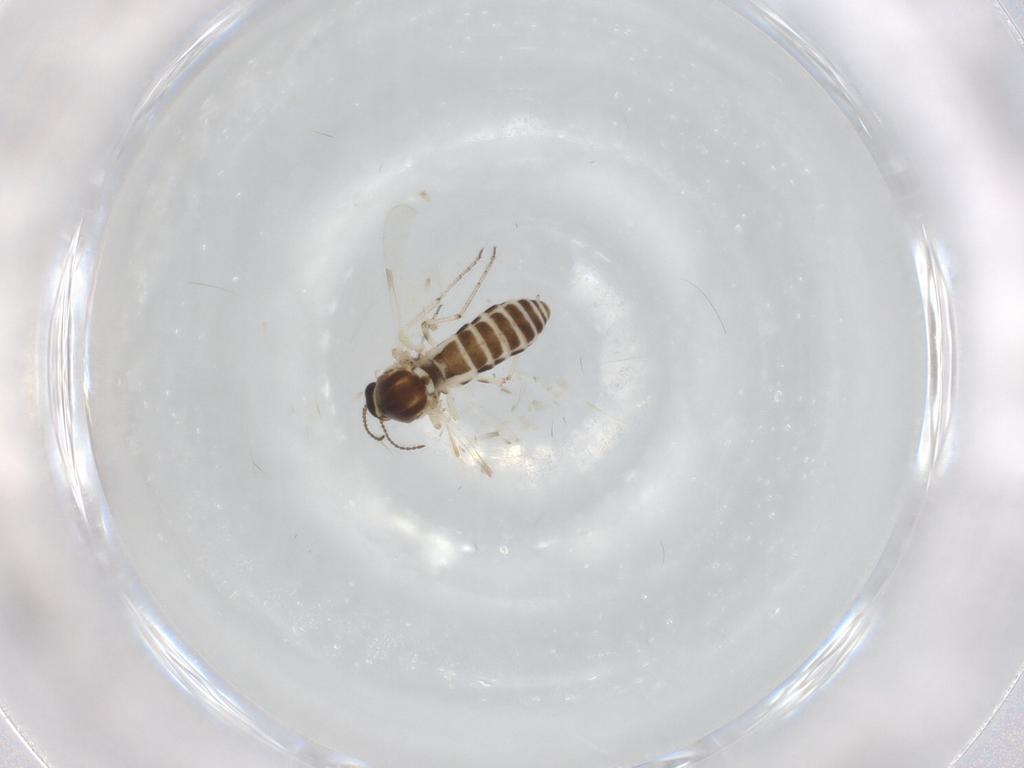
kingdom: Animalia
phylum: Arthropoda
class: Insecta
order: Diptera
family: Ceratopogonidae
